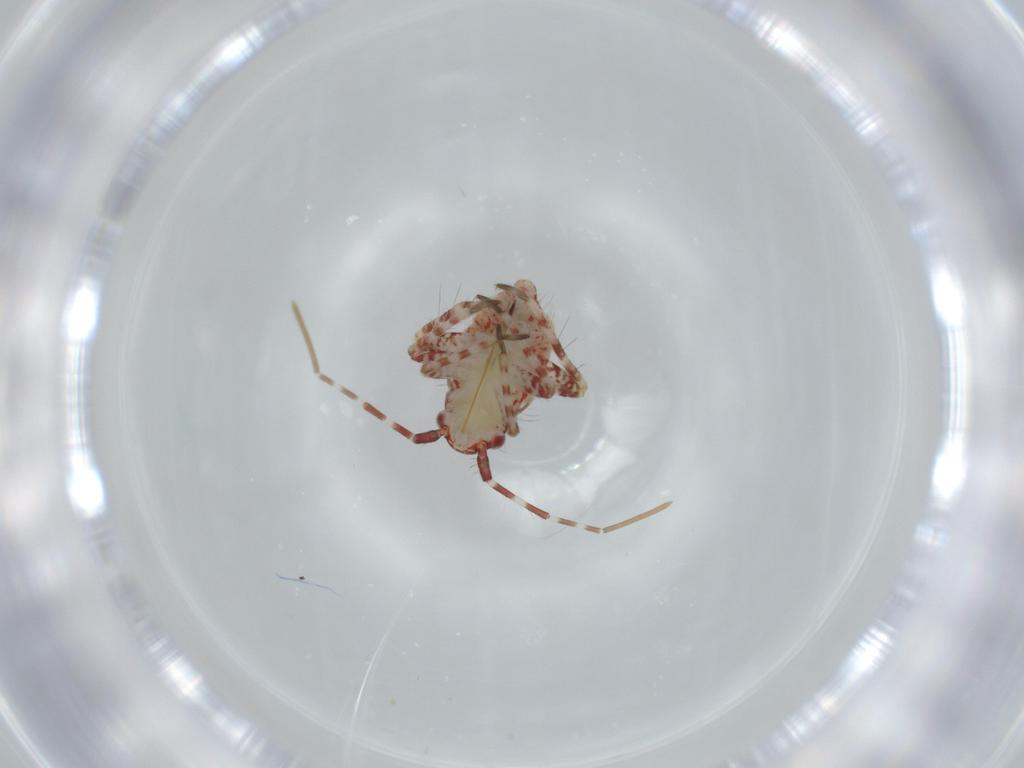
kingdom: Animalia
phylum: Arthropoda
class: Insecta
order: Hemiptera
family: Miridae
